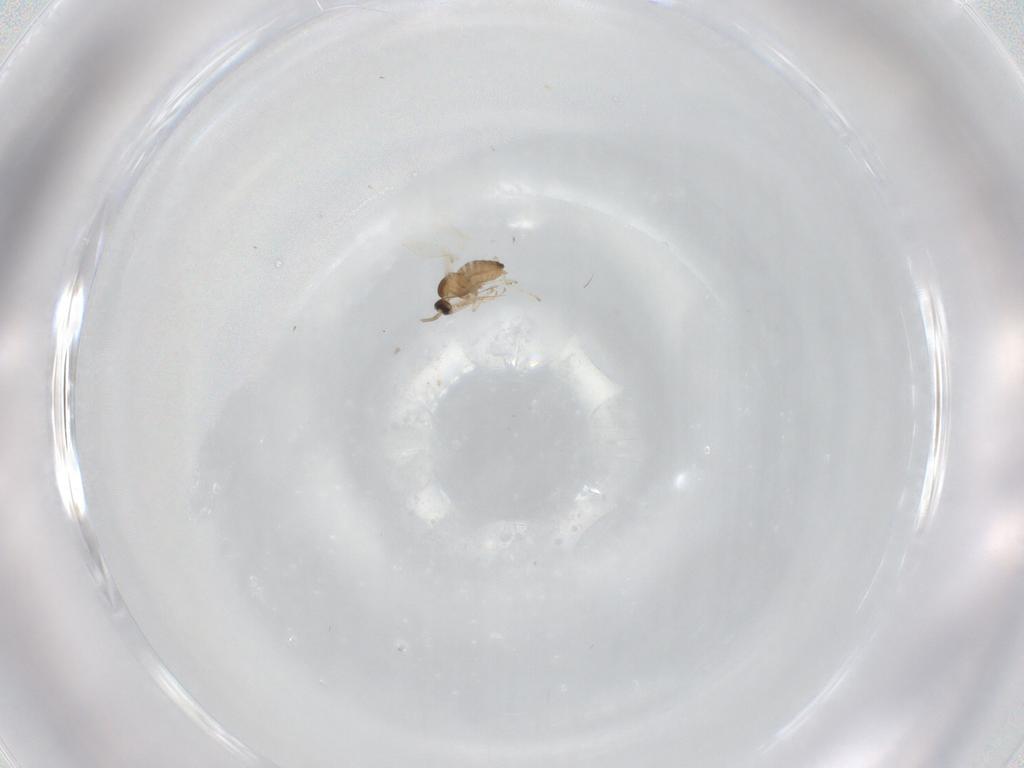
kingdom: Animalia
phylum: Arthropoda
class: Insecta
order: Diptera
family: Cecidomyiidae
